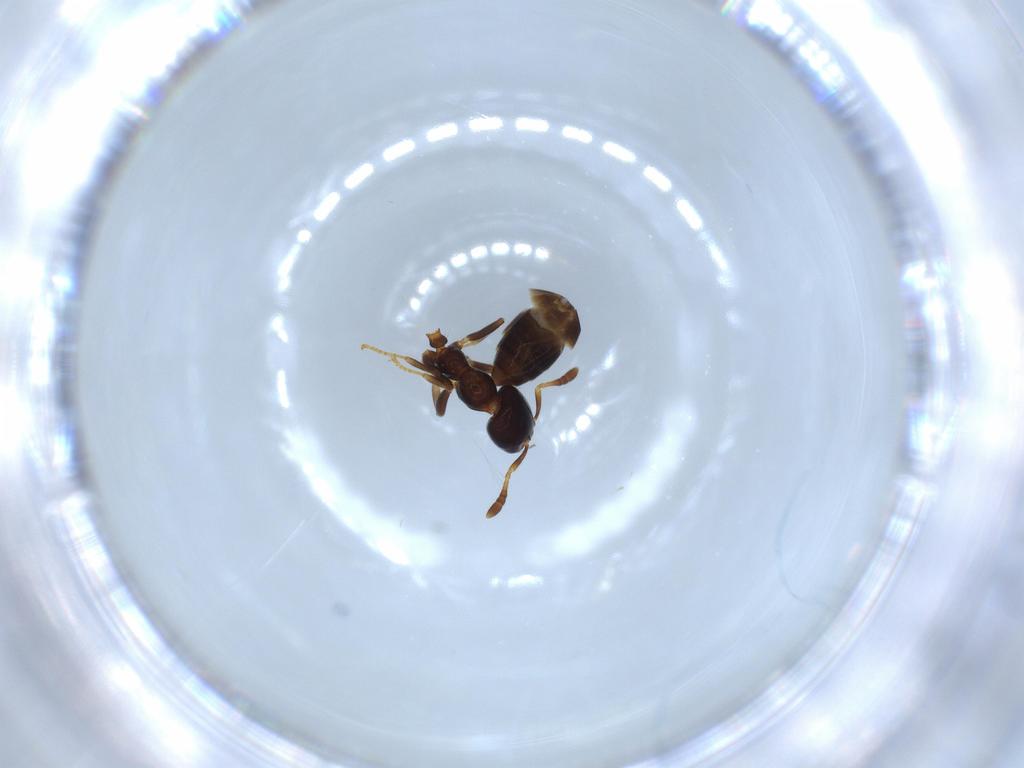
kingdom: Animalia
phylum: Arthropoda
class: Insecta
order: Hymenoptera
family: Formicidae
